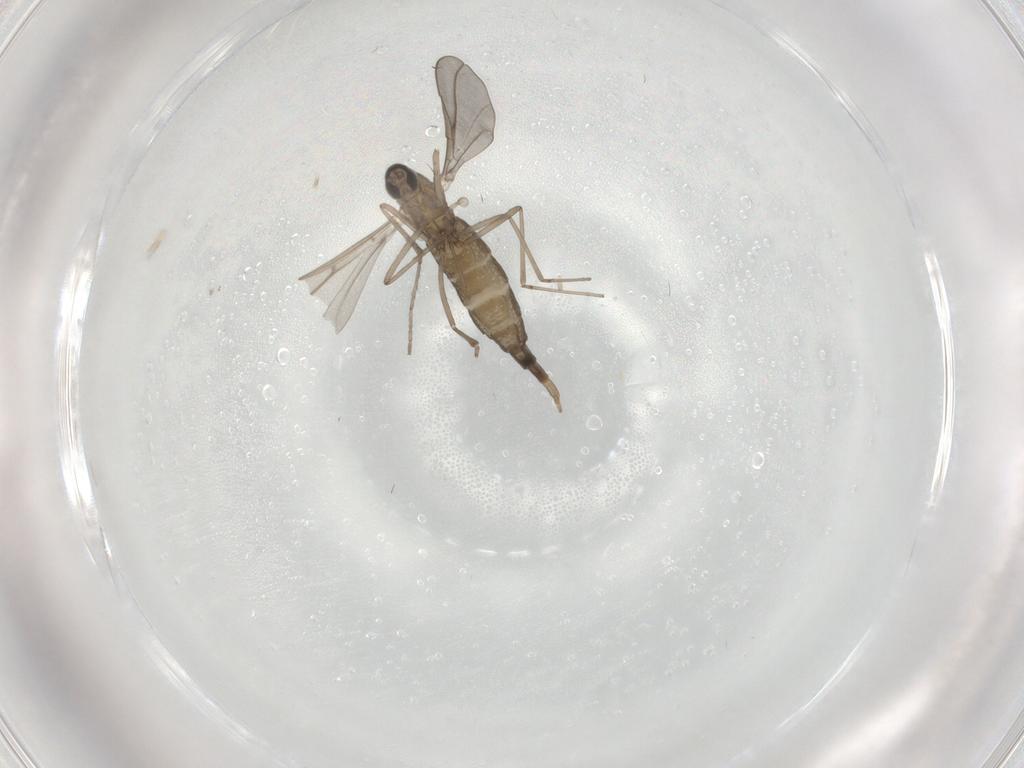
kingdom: Animalia
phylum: Arthropoda
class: Insecta
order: Diptera
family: Cecidomyiidae
